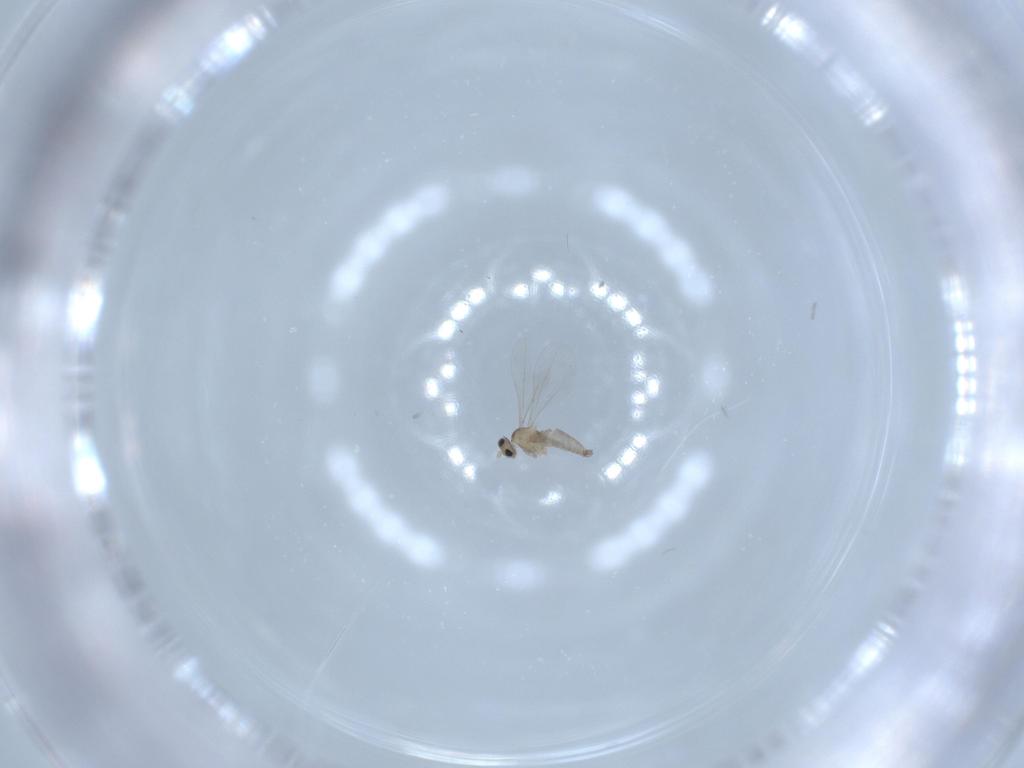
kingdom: Animalia
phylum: Arthropoda
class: Insecta
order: Diptera
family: Cecidomyiidae
